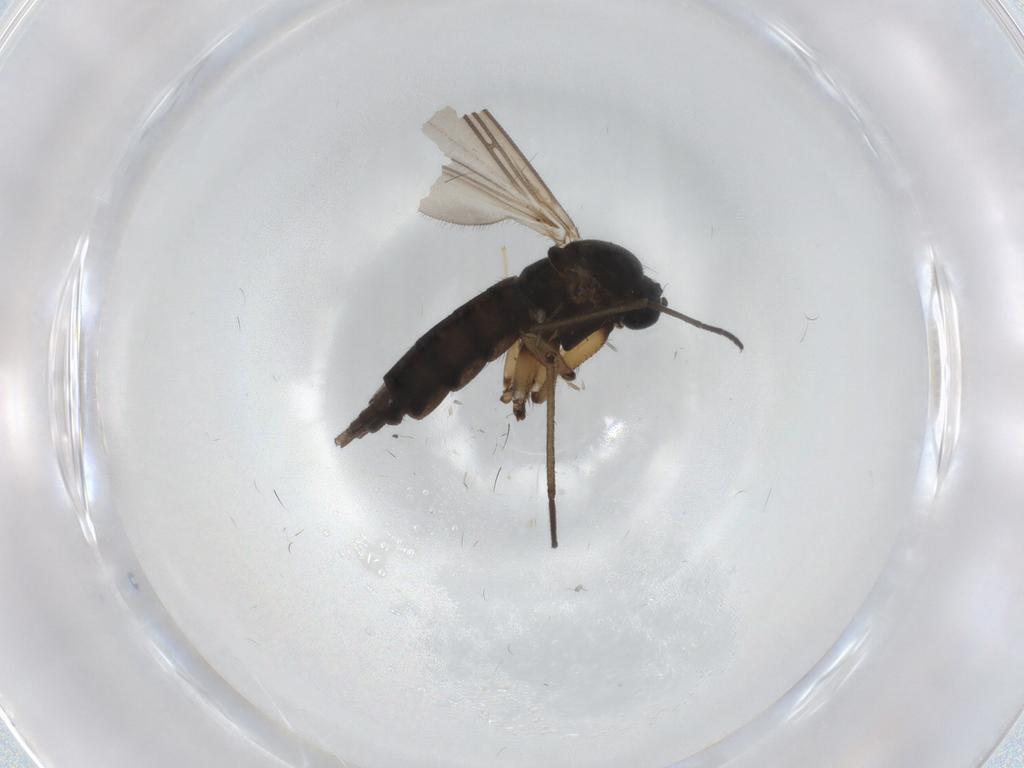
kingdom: Animalia
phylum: Arthropoda
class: Insecta
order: Diptera
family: Sciaridae
